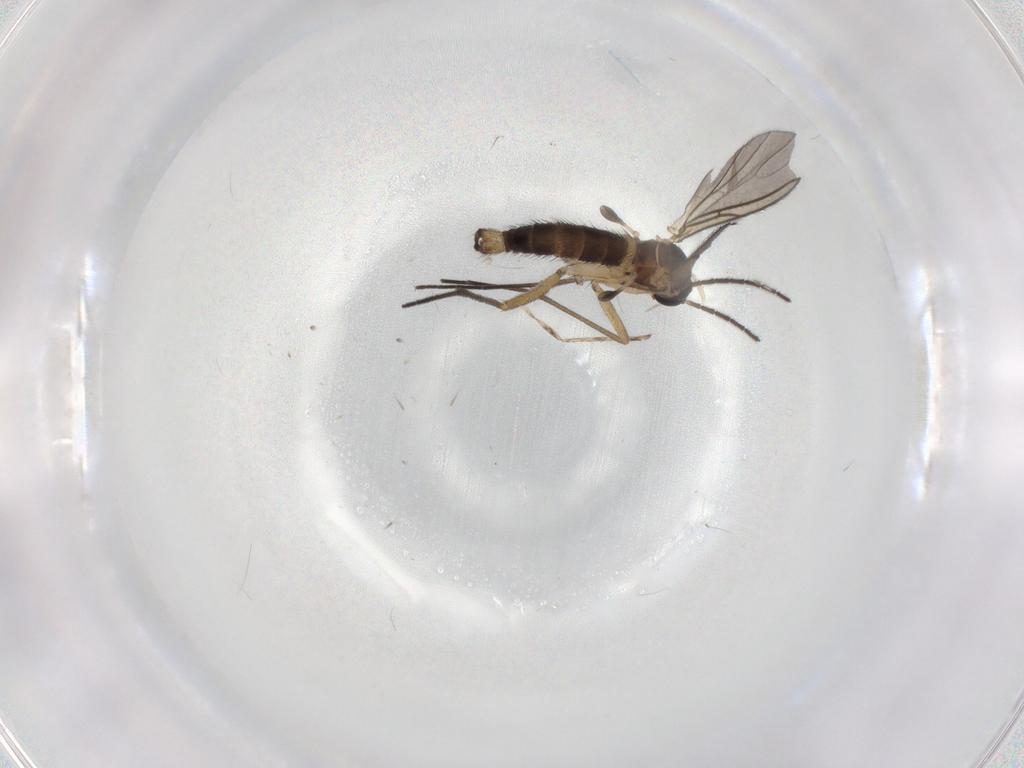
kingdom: Animalia
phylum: Arthropoda
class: Insecta
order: Diptera
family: Cecidomyiidae
